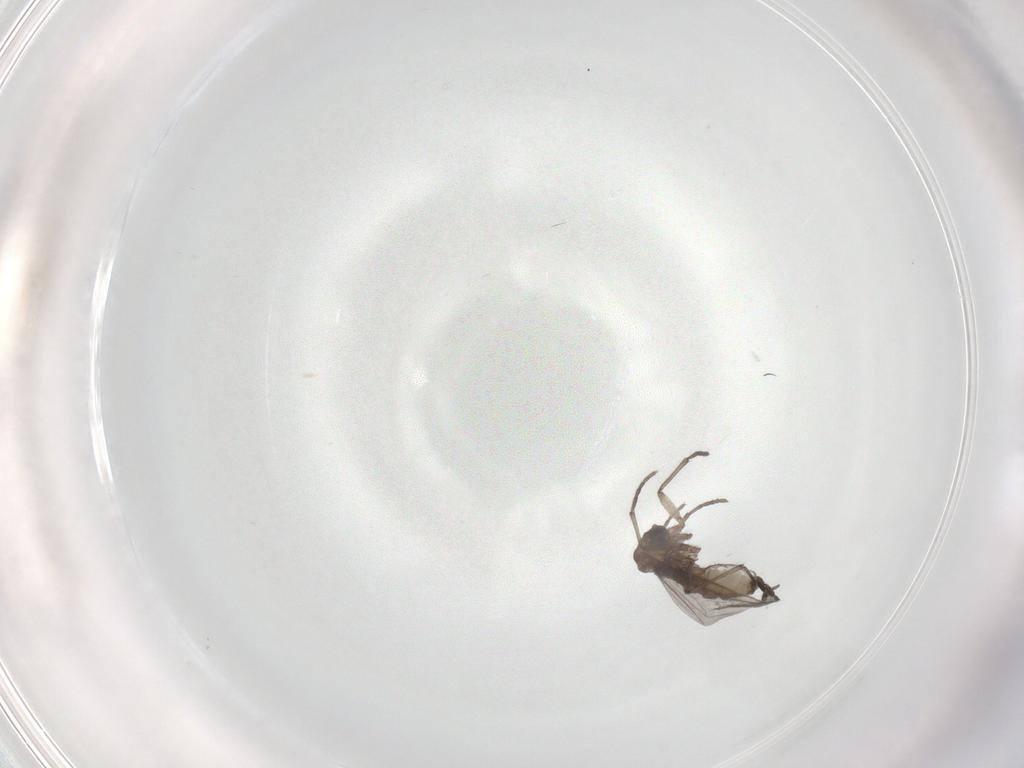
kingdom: Animalia
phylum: Arthropoda
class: Insecta
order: Diptera
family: Sciaridae
